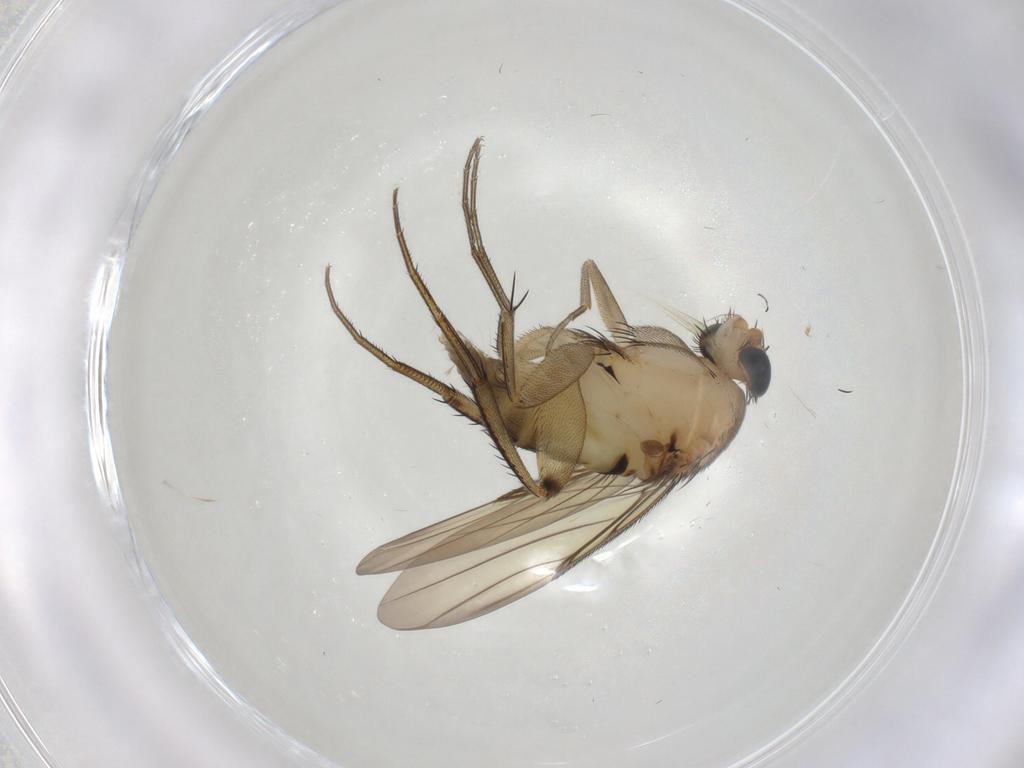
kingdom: Animalia
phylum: Arthropoda
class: Insecta
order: Diptera
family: Phoridae
